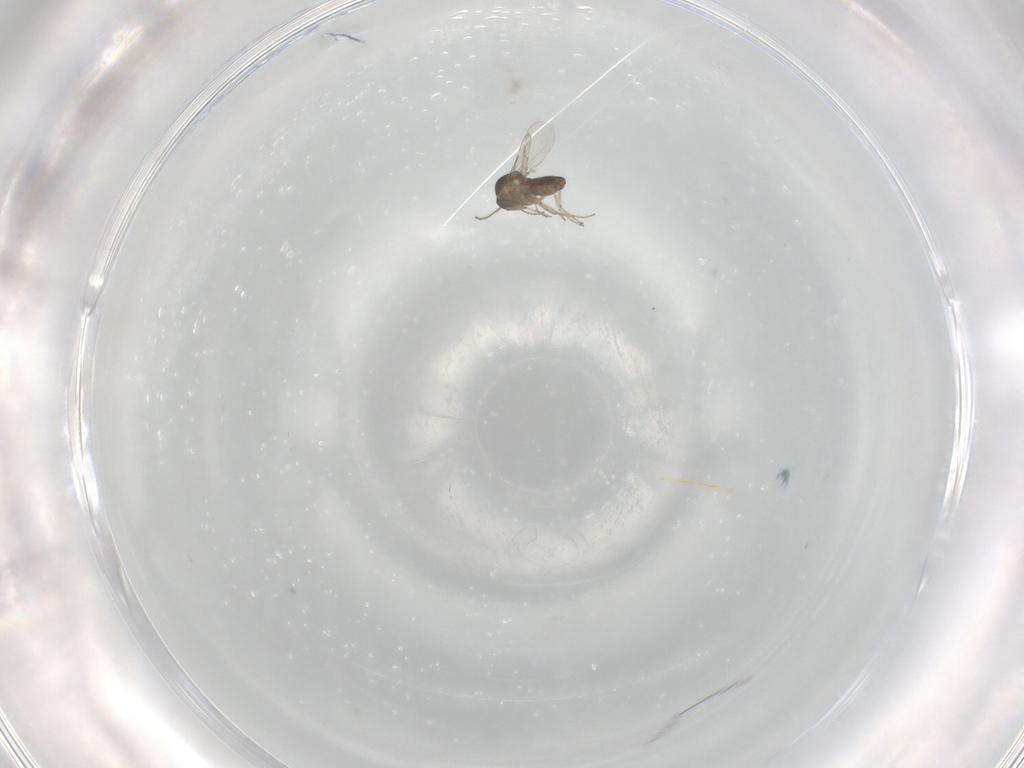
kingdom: Animalia
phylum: Arthropoda
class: Insecta
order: Diptera
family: Ceratopogonidae
